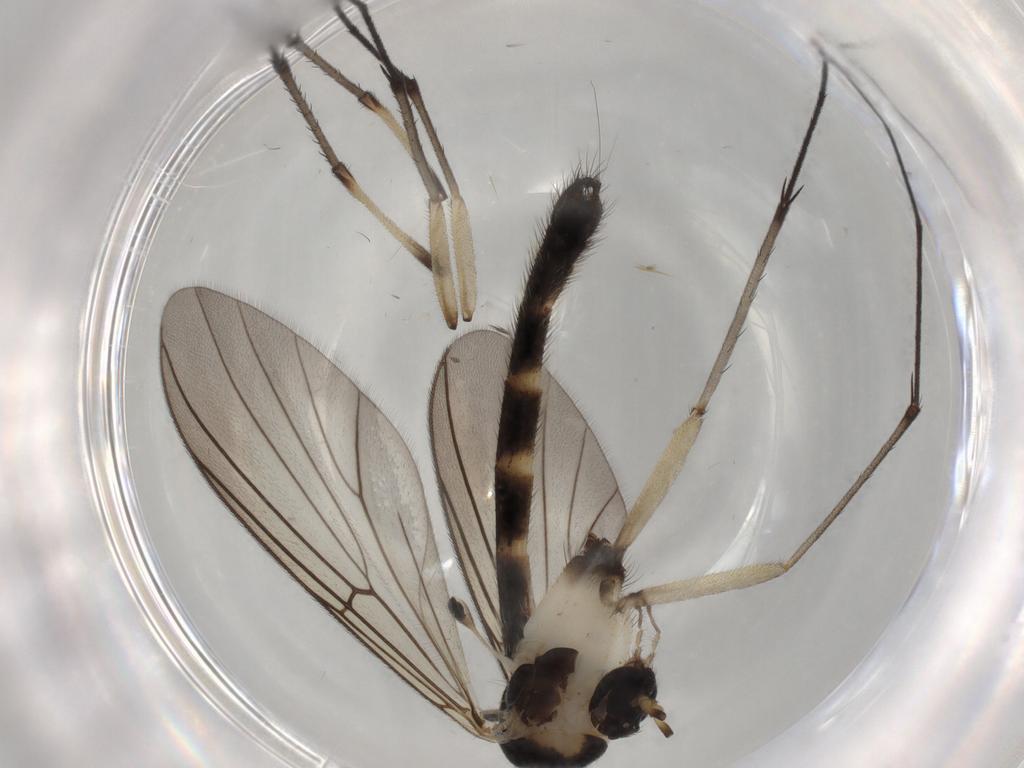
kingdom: Animalia
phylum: Arthropoda
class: Insecta
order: Diptera
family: Sciaridae
